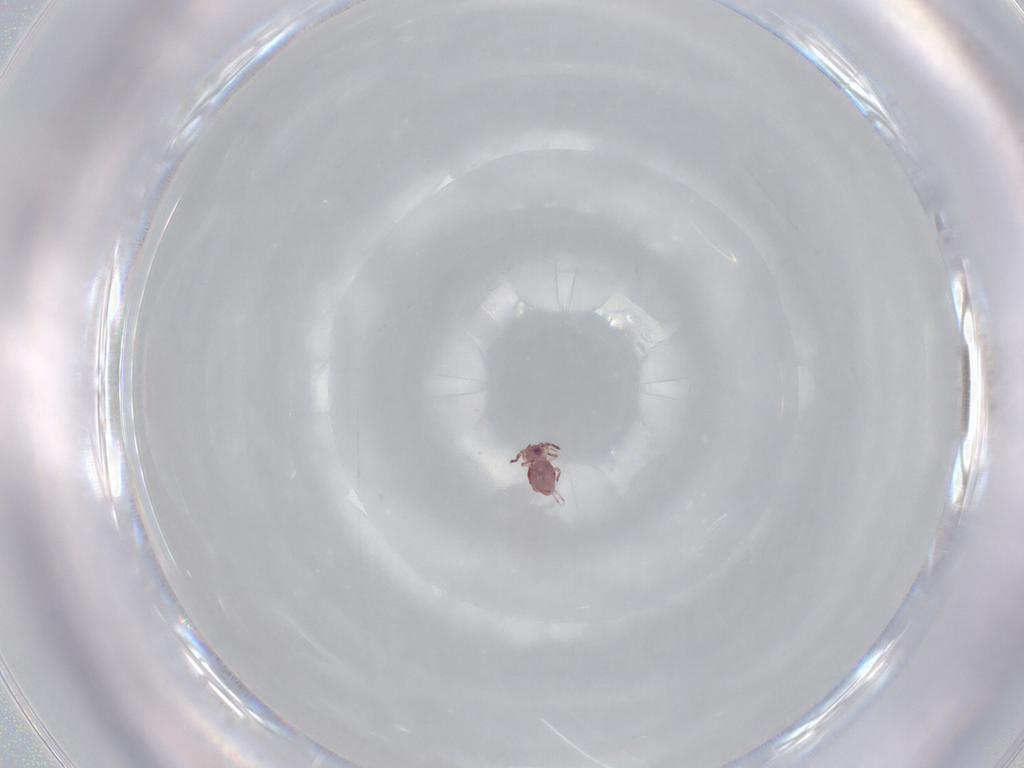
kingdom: Animalia
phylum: Arthropoda
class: Collembola
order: Symphypleona
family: Sminthurididae
